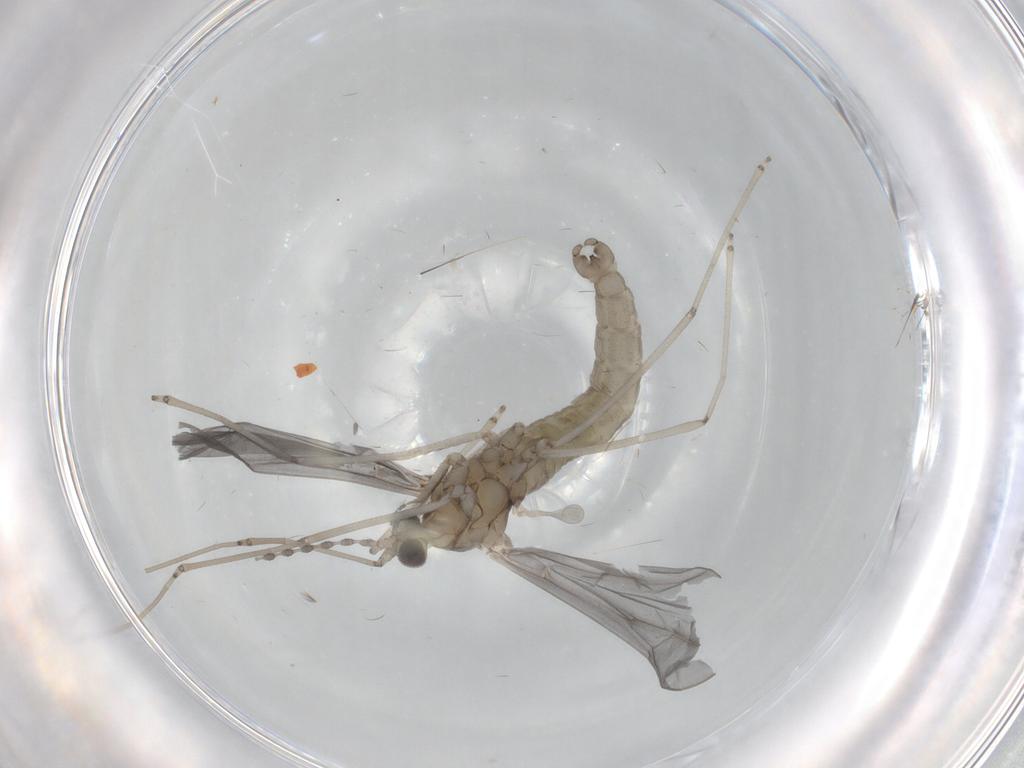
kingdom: Animalia
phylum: Arthropoda
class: Insecta
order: Diptera
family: Cecidomyiidae
